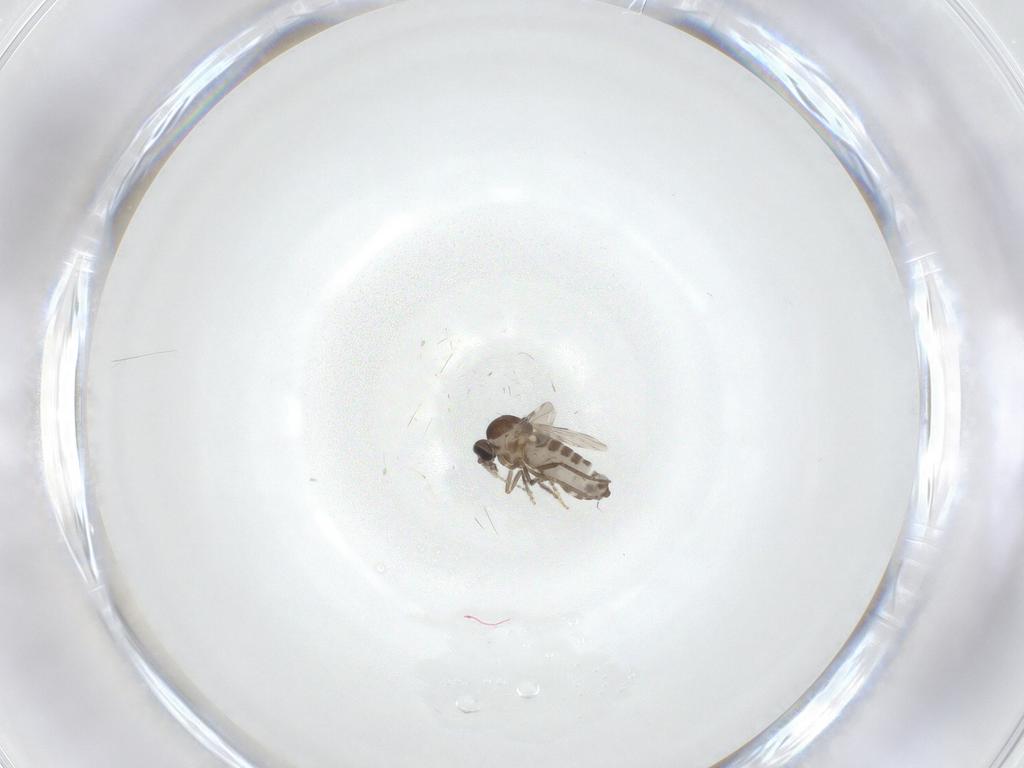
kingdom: Animalia
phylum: Arthropoda
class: Insecta
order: Diptera
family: Ceratopogonidae
